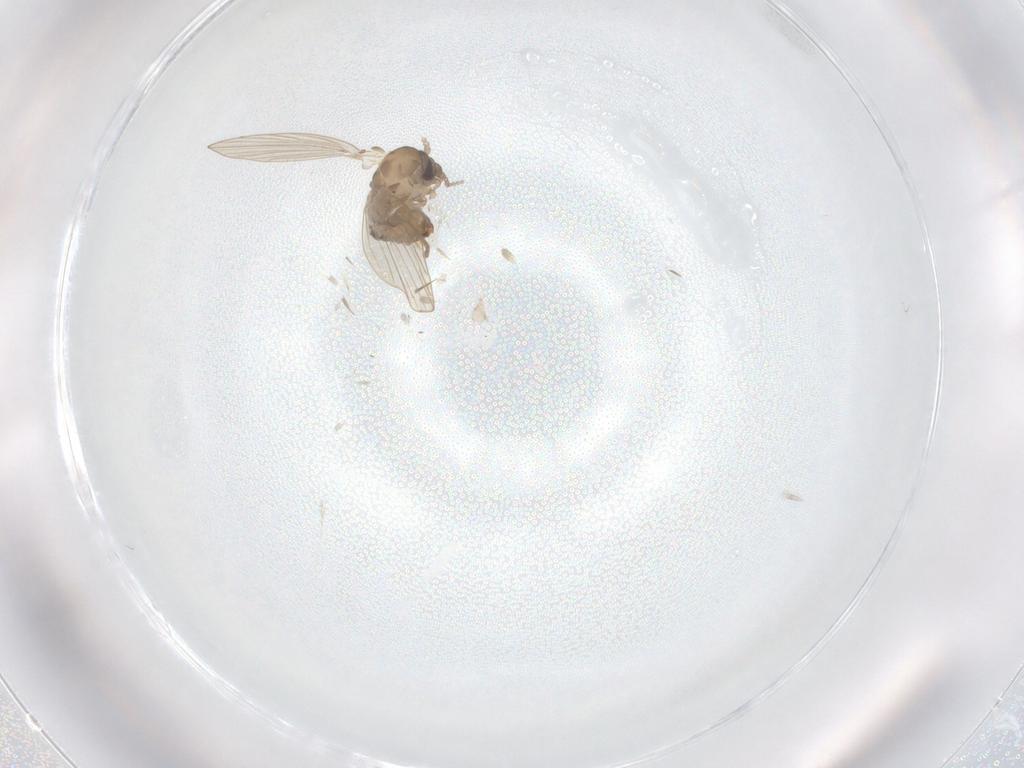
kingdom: Animalia
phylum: Arthropoda
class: Insecta
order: Diptera
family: Psychodidae
